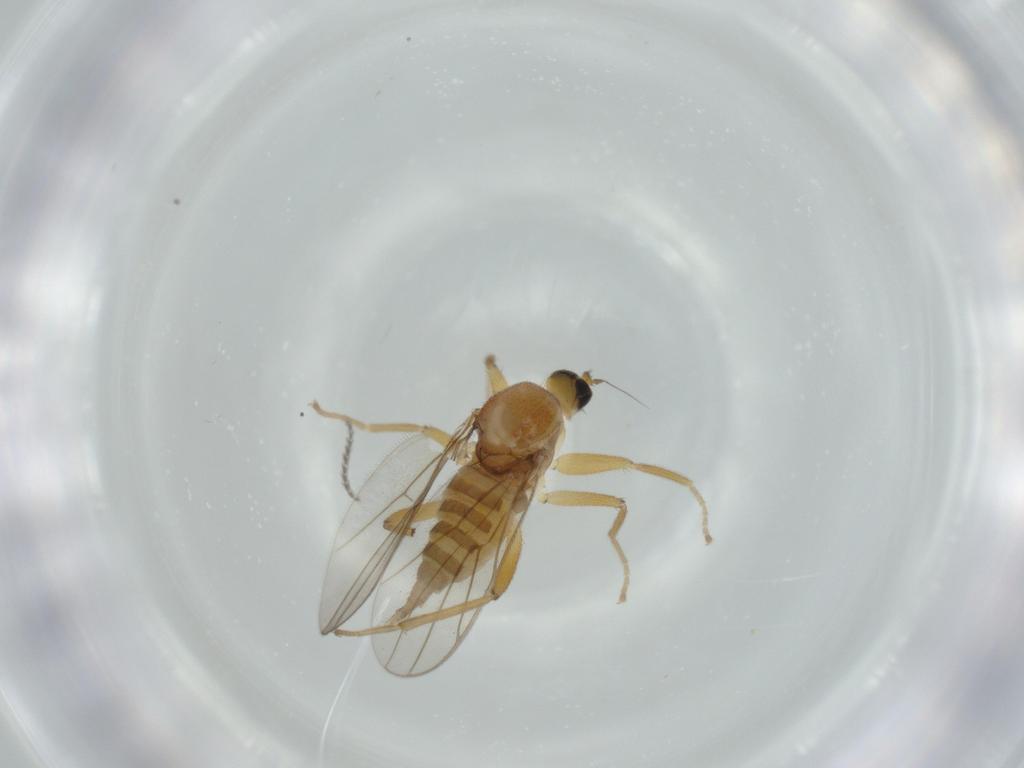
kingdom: Animalia
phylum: Arthropoda
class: Insecta
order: Diptera
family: Hybotidae
